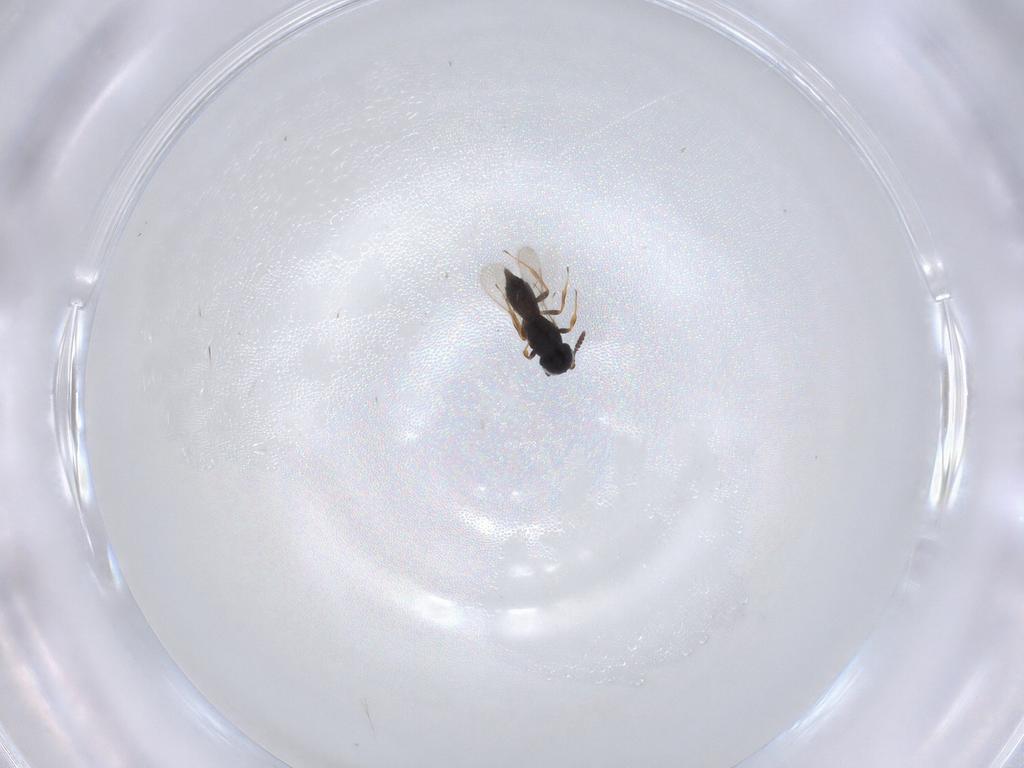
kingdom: Animalia
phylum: Arthropoda
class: Insecta
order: Hymenoptera
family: Scelionidae
